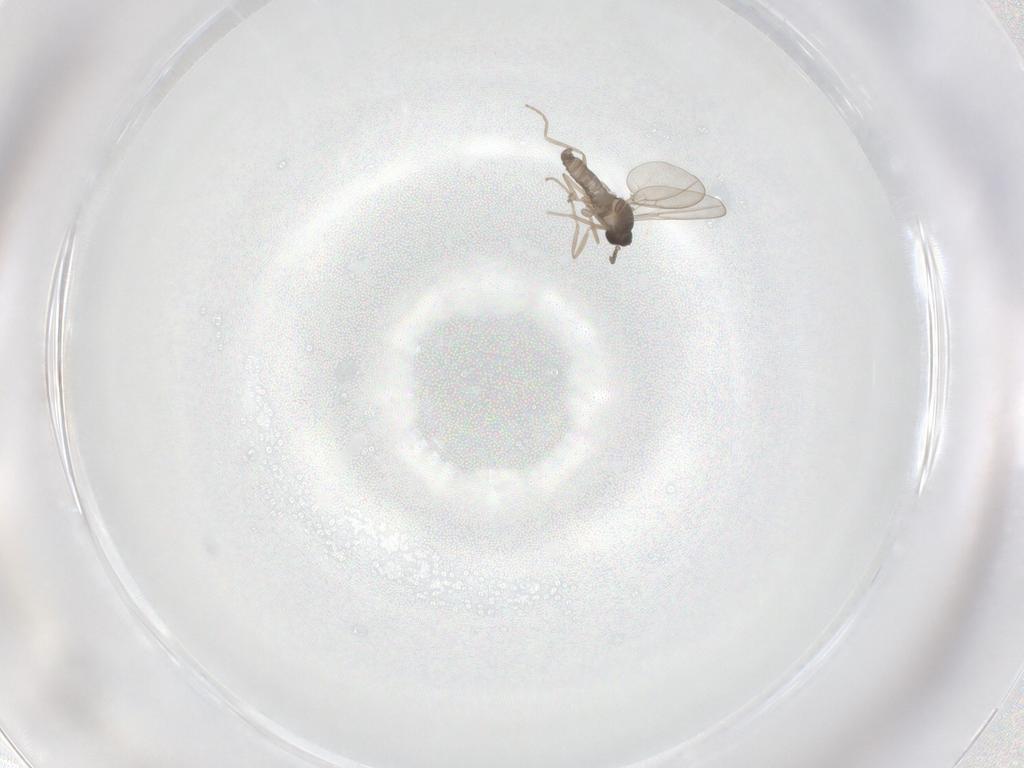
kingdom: Animalia
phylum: Arthropoda
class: Insecta
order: Diptera
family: Cecidomyiidae
